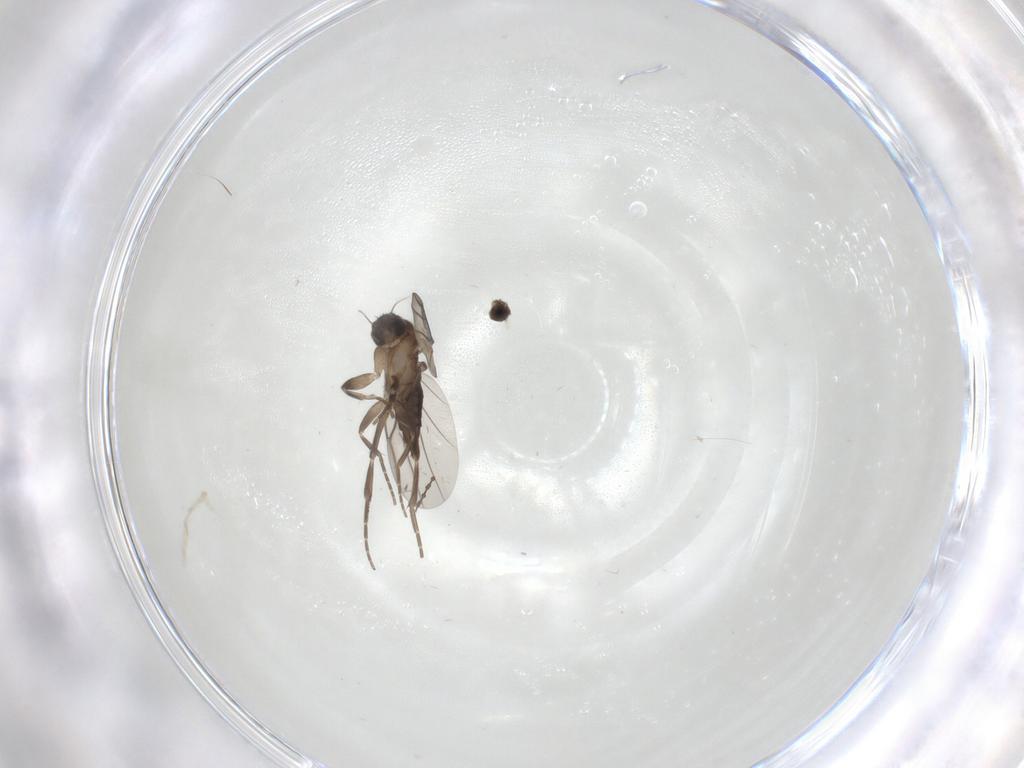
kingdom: Animalia
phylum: Arthropoda
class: Insecta
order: Diptera
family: Cecidomyiidae
